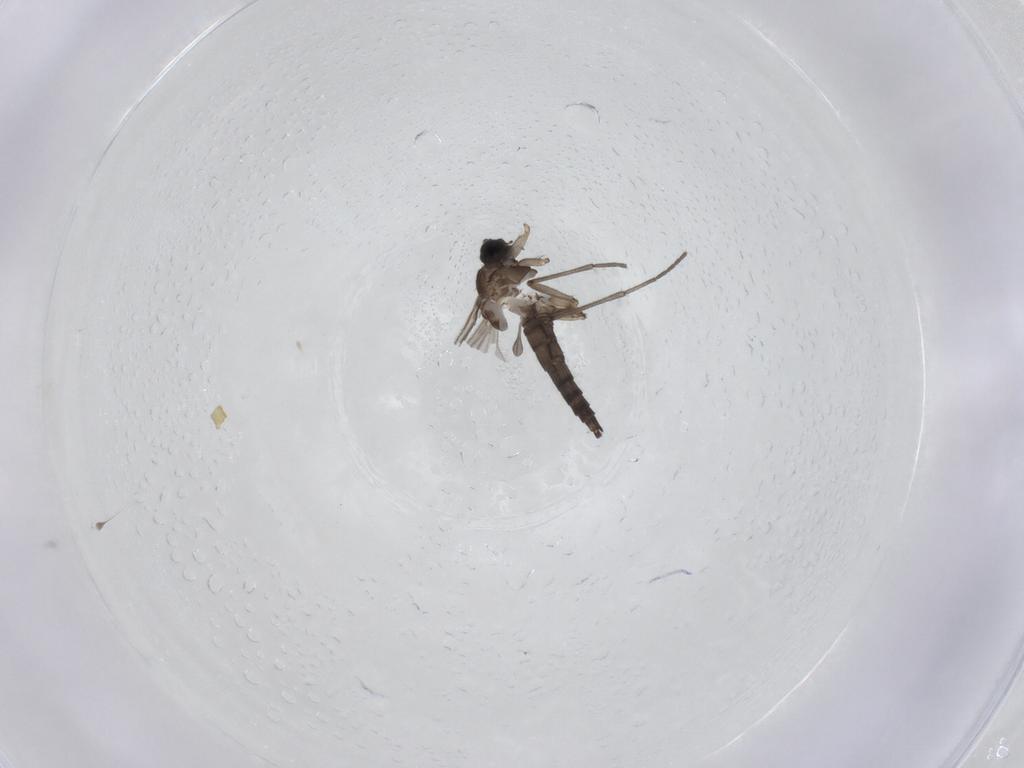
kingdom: Animalia
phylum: Arthropoda
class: Insecta
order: Diptera
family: Sciaridae
